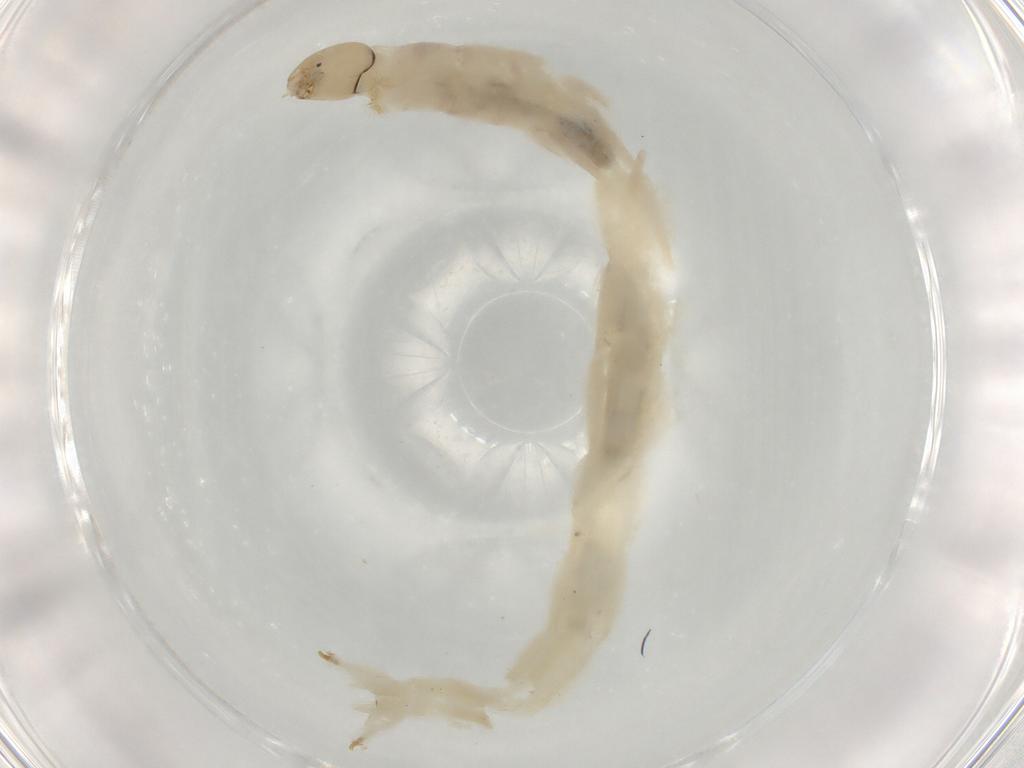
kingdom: Animalia
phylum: Arthropoda
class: Insecta
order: Diptera
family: Chironomidae
